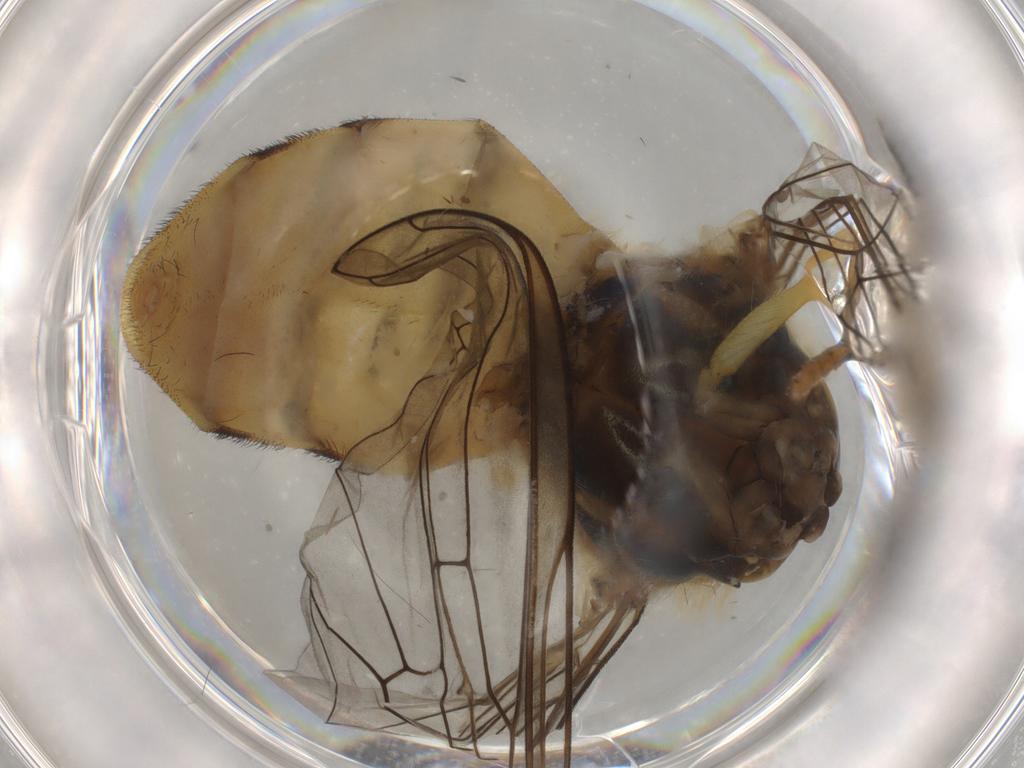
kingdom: Animalia
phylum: Arthropoda
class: Insecta
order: Diptera
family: Syrphidae
